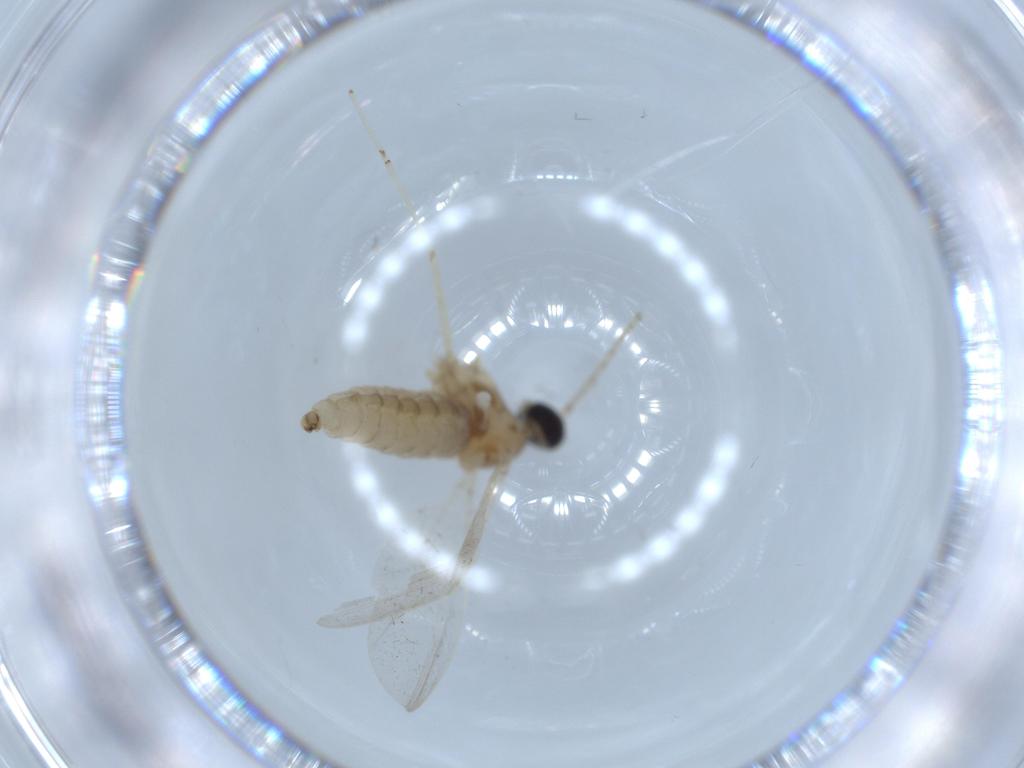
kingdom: Animalia
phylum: Arthropoda
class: Insecta
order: Diptera
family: Cecidomyiidae
